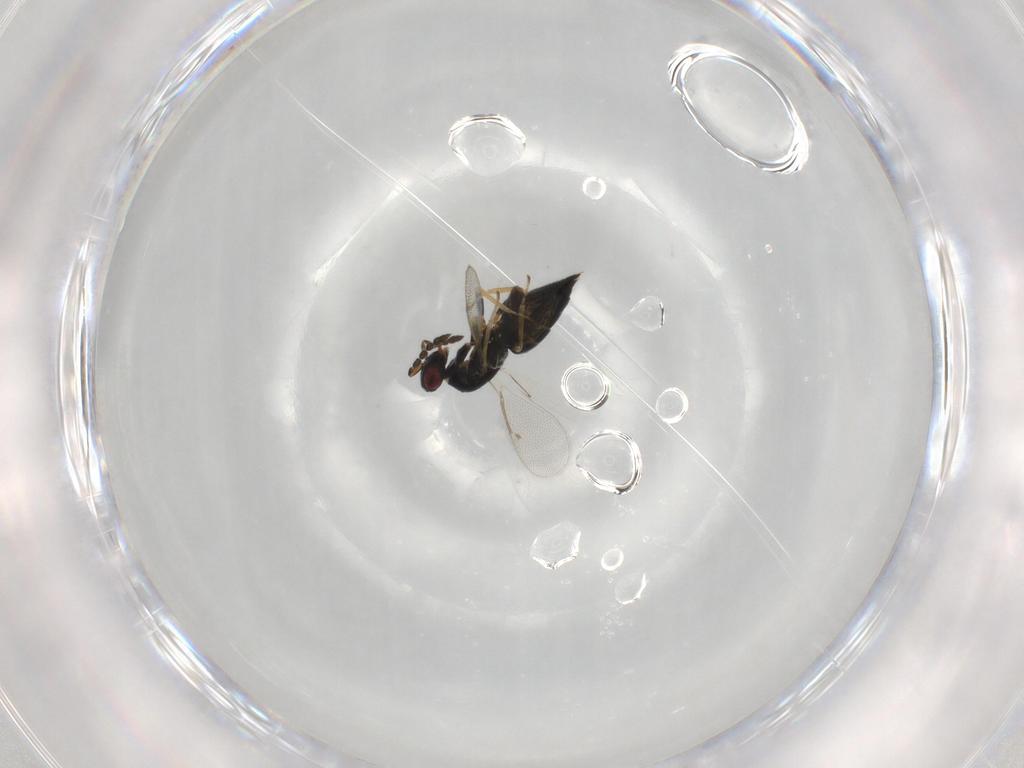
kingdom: Animalia
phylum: Arthropoda
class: Insecta
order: Hymenoptera
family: Eulophidae
